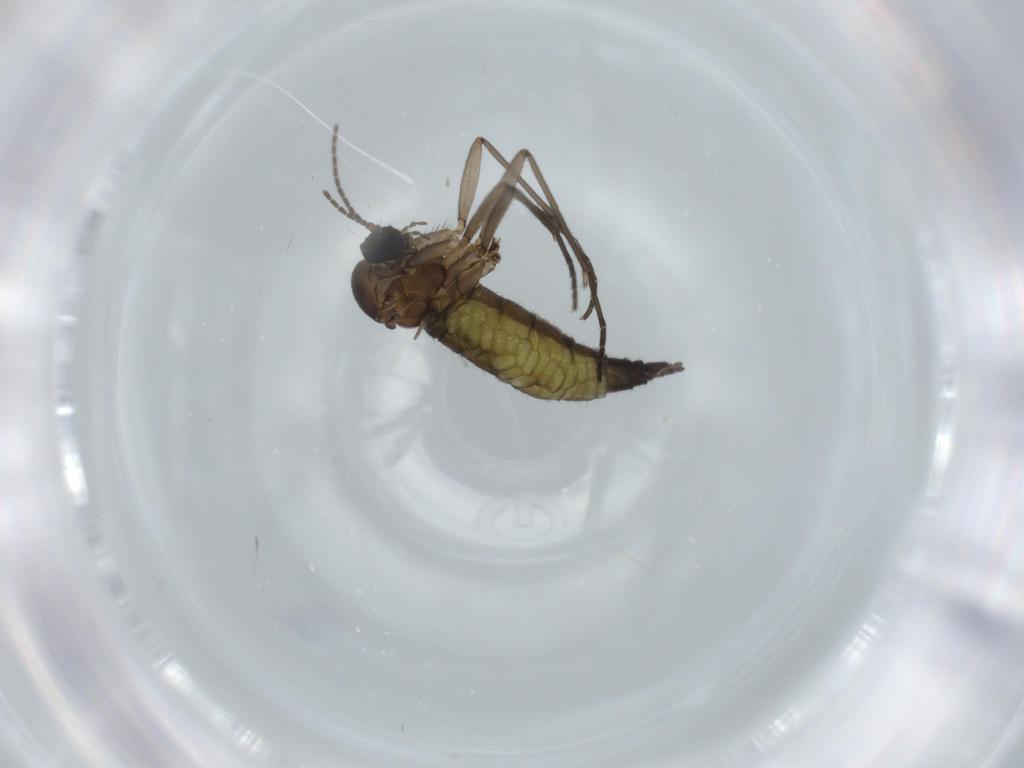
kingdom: Animalia
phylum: Arthropoda
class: Insecta
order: Diptera
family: Sciaridae
